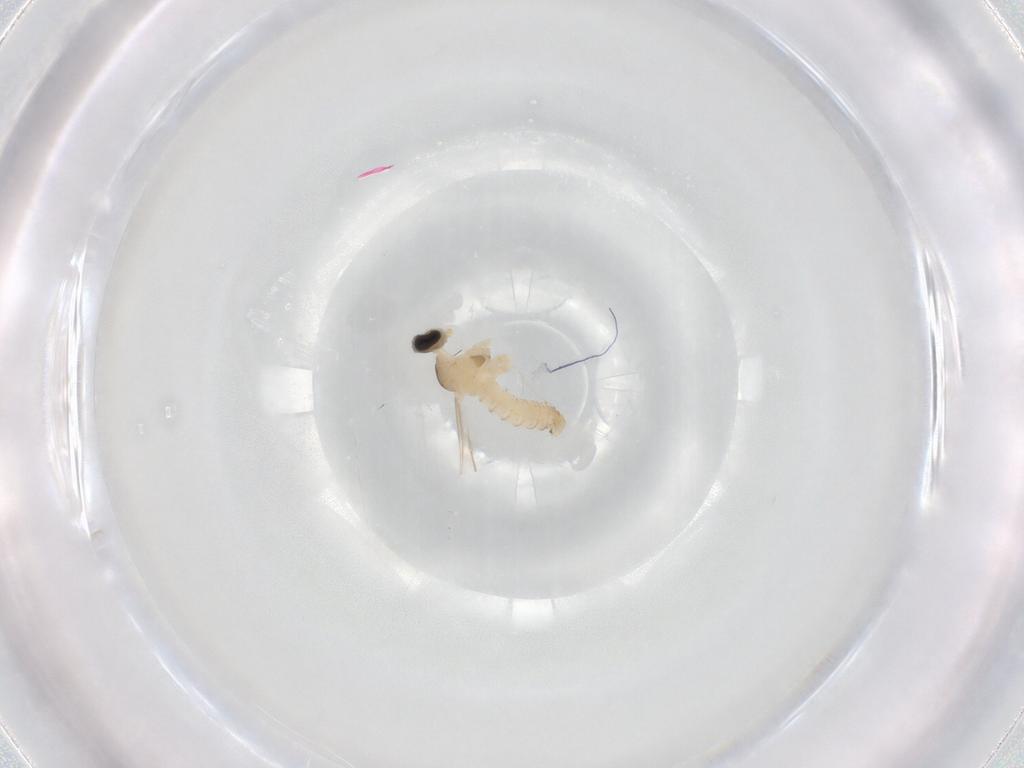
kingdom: Animalia
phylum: Arthropoda
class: Insecta
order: Diptera
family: Cecidomyiidae
